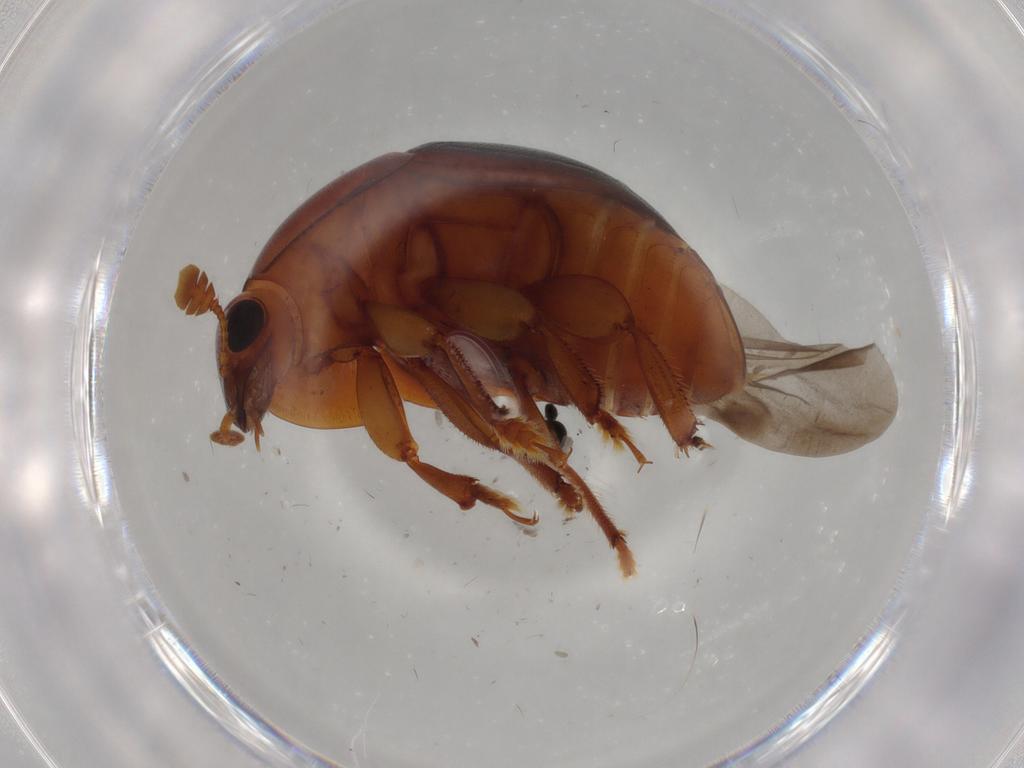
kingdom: Animalia
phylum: Arthropoda
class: Insecta
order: Coleoptera
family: Nitidulidae
